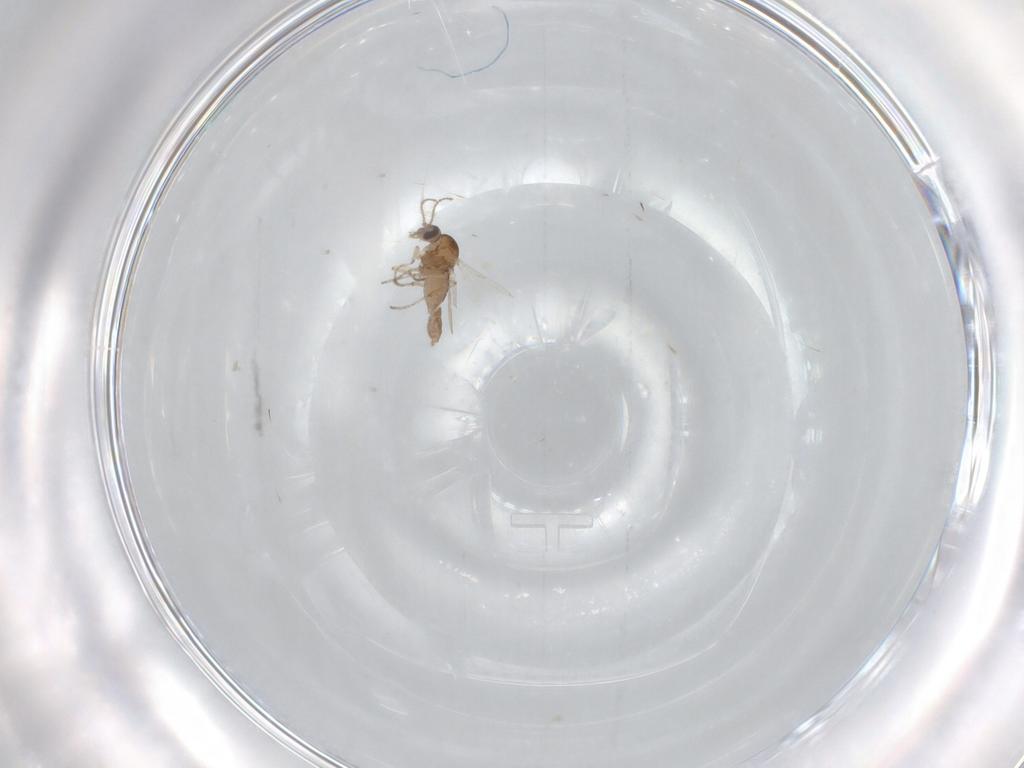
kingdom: Animalia
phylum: Arthropoda
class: Insecta
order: Diptera
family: Ceratopogonidae
